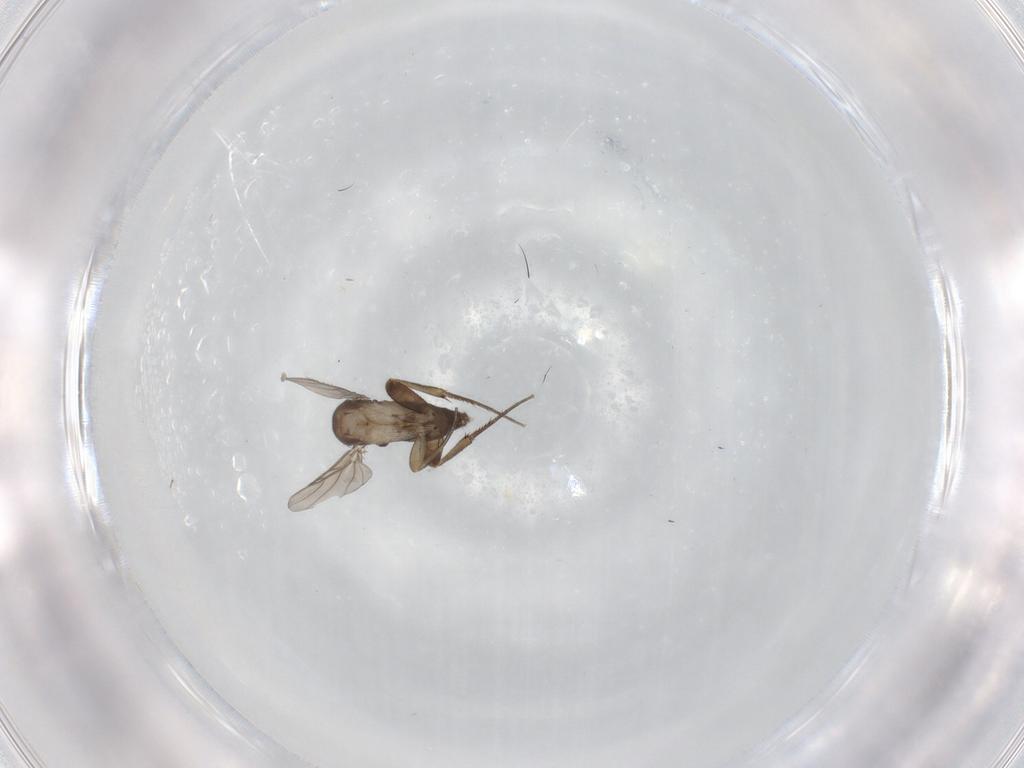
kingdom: Animalia
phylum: Arthropoda
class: Insecta
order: Diptera
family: Phoridae
